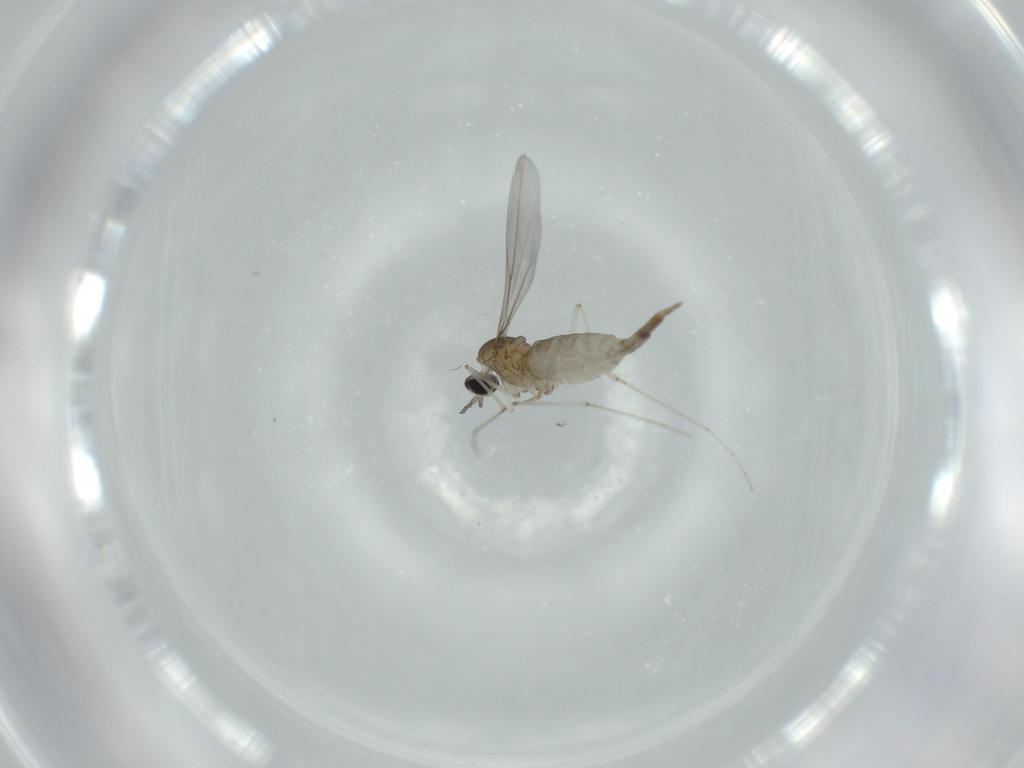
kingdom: Animalia
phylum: Arthropoda
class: Insecta
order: Diptera
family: Cecidomyiidae
